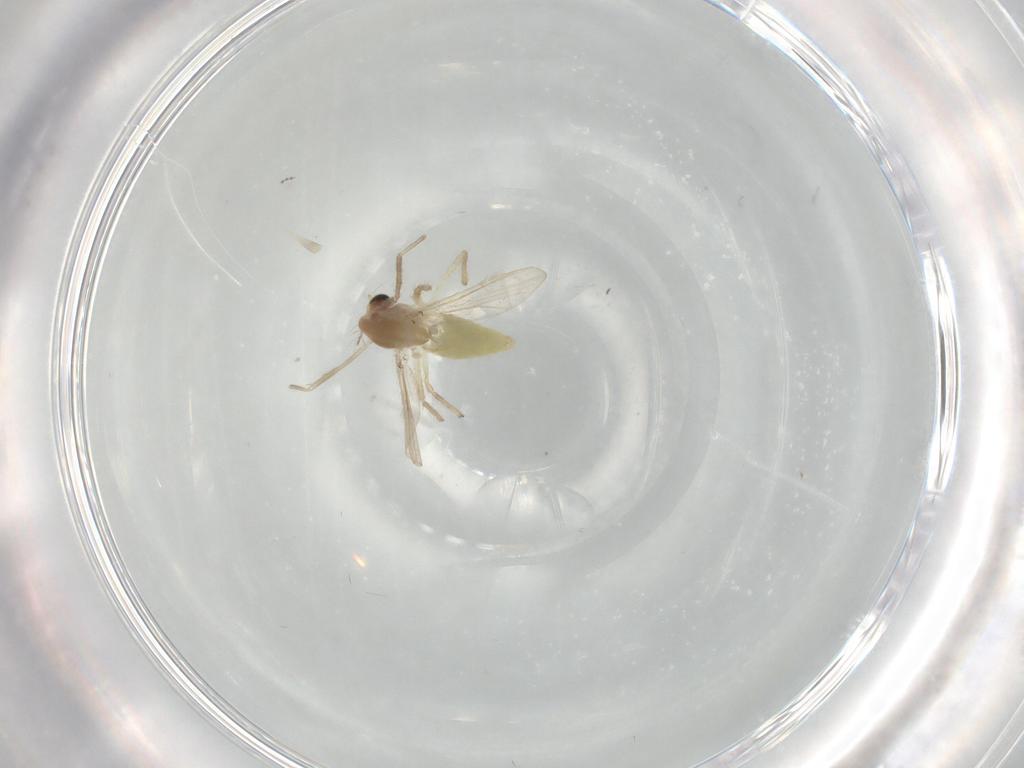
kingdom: Animalia
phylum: Arthropoda
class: Insecta
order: Diptera
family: Cecidomyiidae
